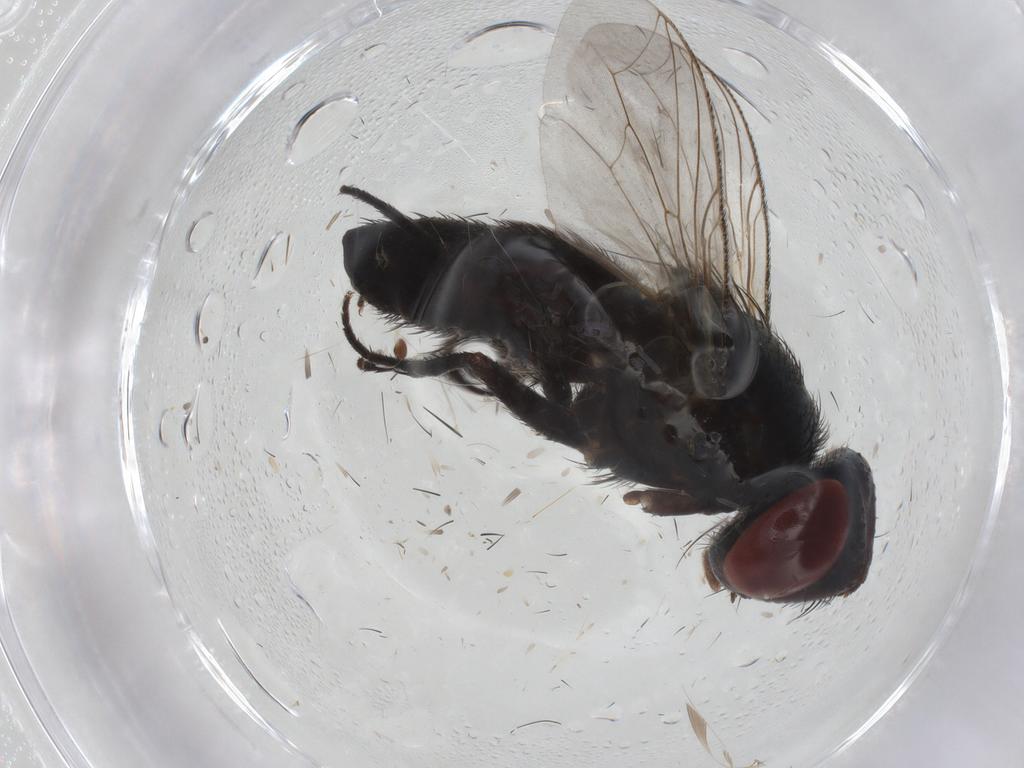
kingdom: Animalia
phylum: Arthropoda
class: Insecta
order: Diptera
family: Sarcophagidae
